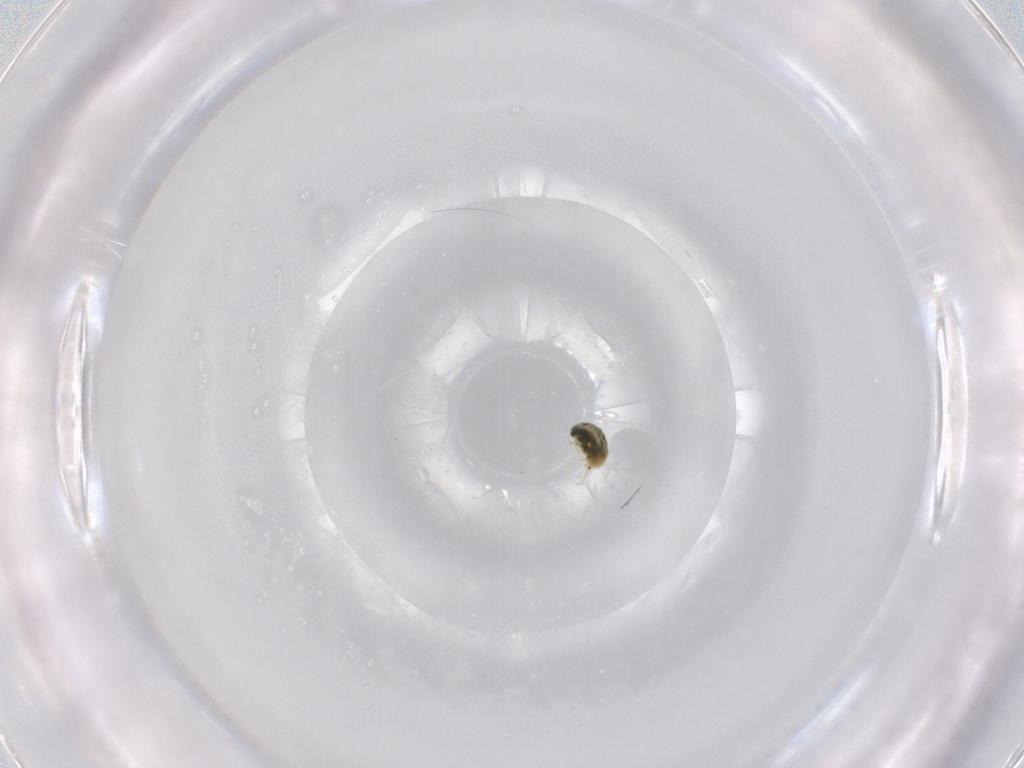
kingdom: Animalia
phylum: Arthropoda
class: Arachnida
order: Trombidiformes
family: Tetranychidae
